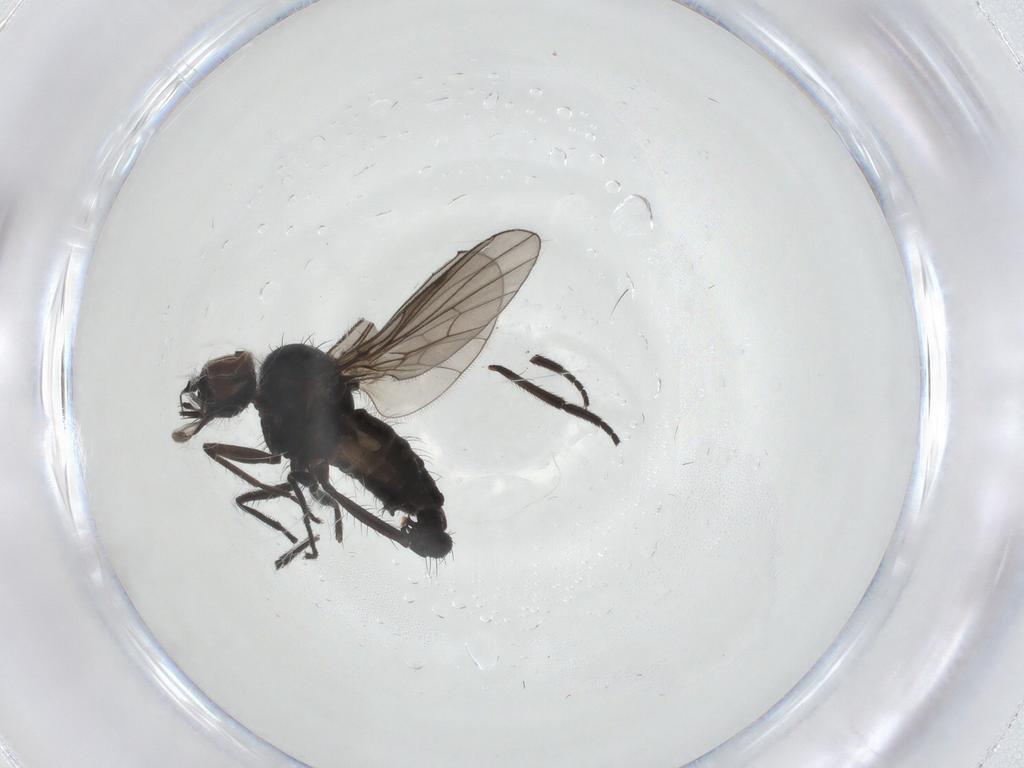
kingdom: Animalia
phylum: Arthropoda
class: Insecta
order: Diptera
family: Dolichopodidae
